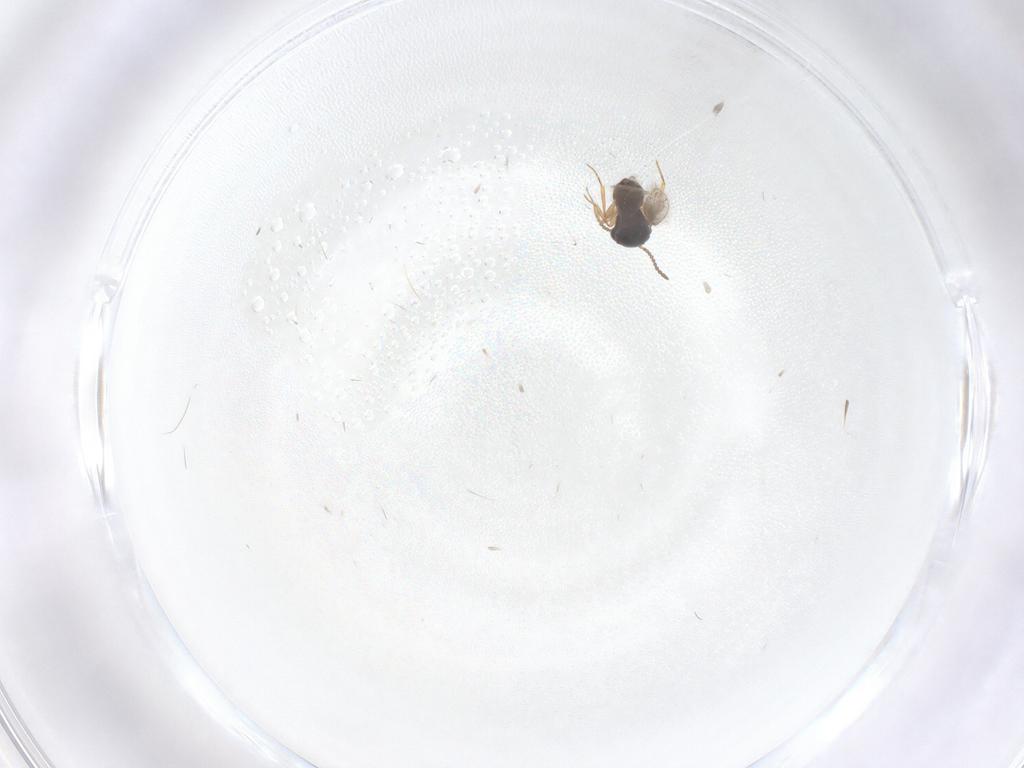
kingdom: Animalia
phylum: Arthropoda
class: Insecta
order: Hymenoptera
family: Scelionidae
